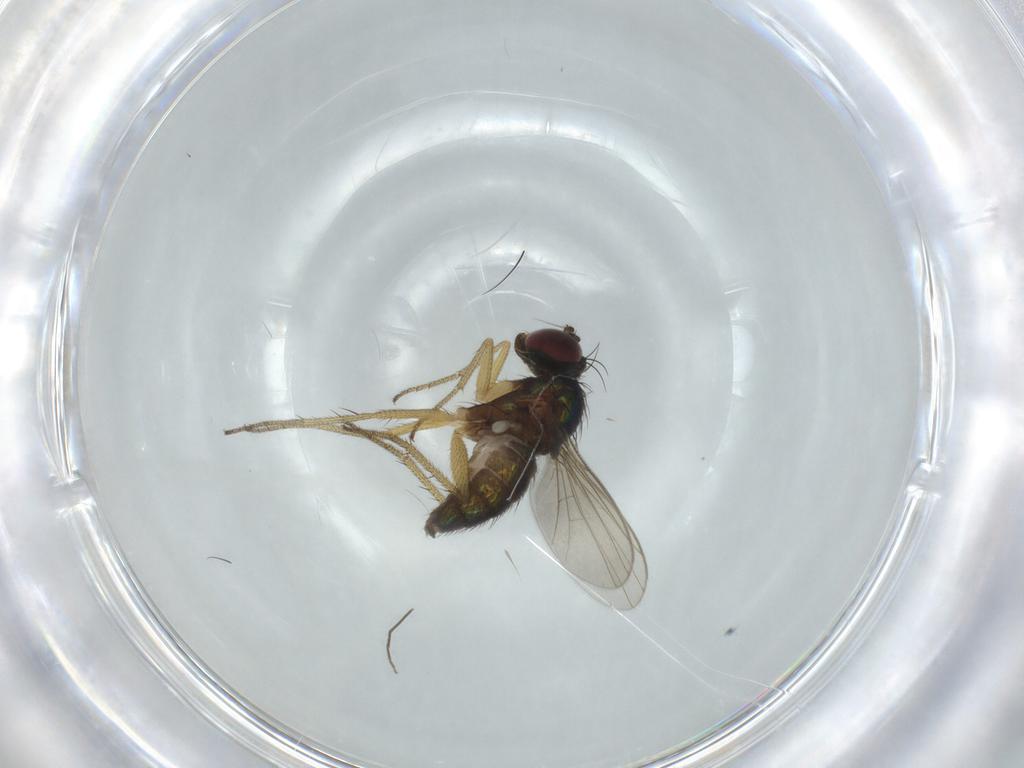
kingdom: Animalia
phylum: Arthropoda
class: Insecta
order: Diptera
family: Dolichopodidae
